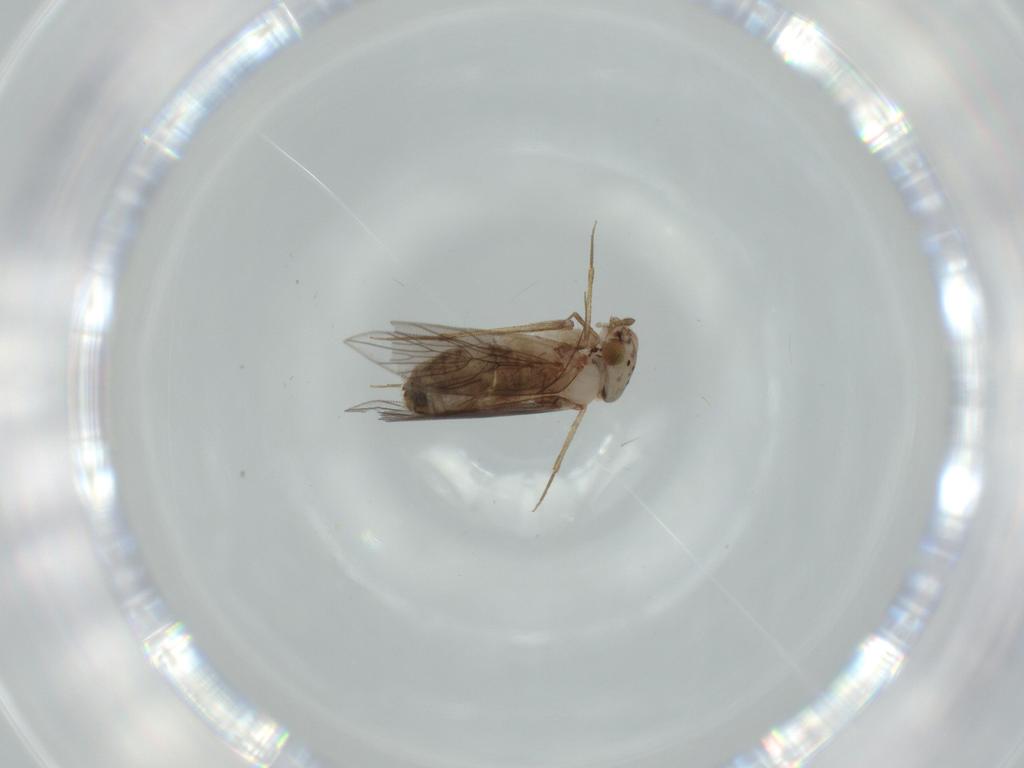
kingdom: Animalia
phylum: Arthropoda
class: Insecta
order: Psocodea
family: Lepidopsocidae
